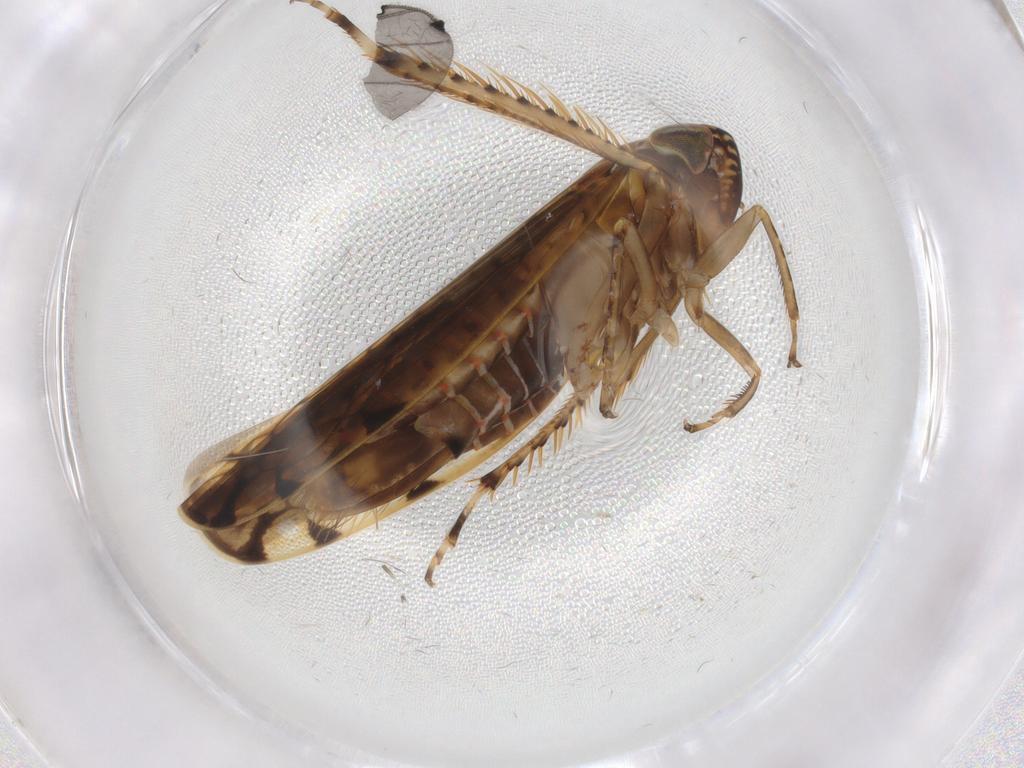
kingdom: Animalia
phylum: Arthropoda
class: Insecta
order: Hemiptera
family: Cicadellidae
